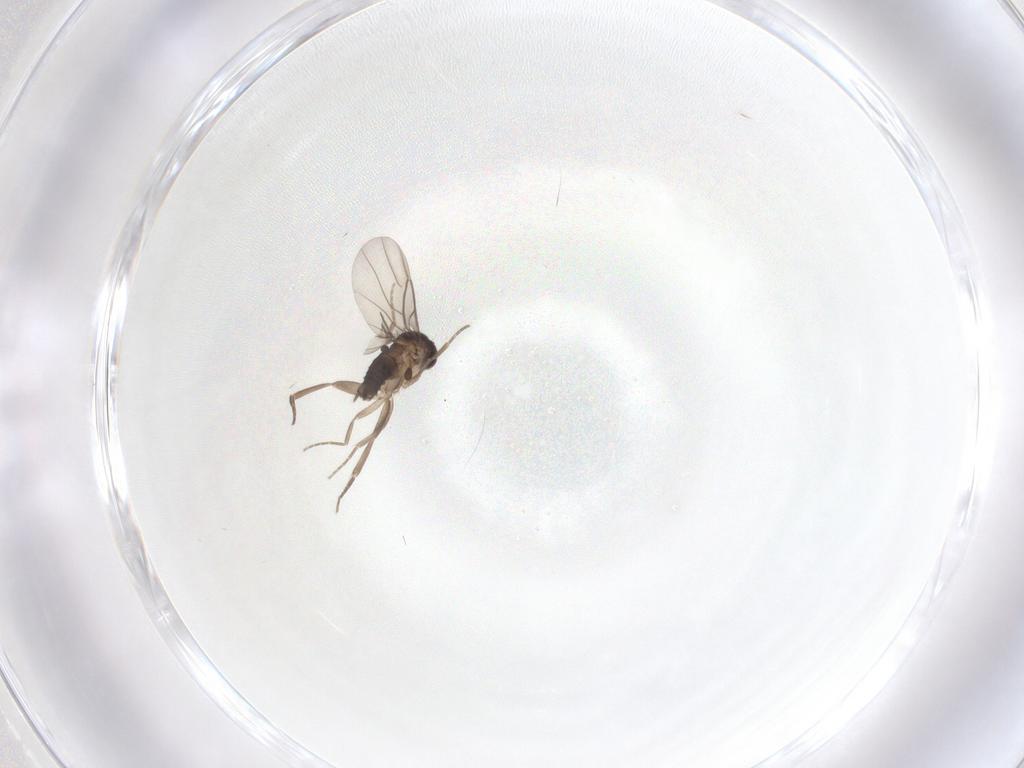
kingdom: Animalia
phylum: Arthropoda
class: Insecta
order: Diptera
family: Phoridae
